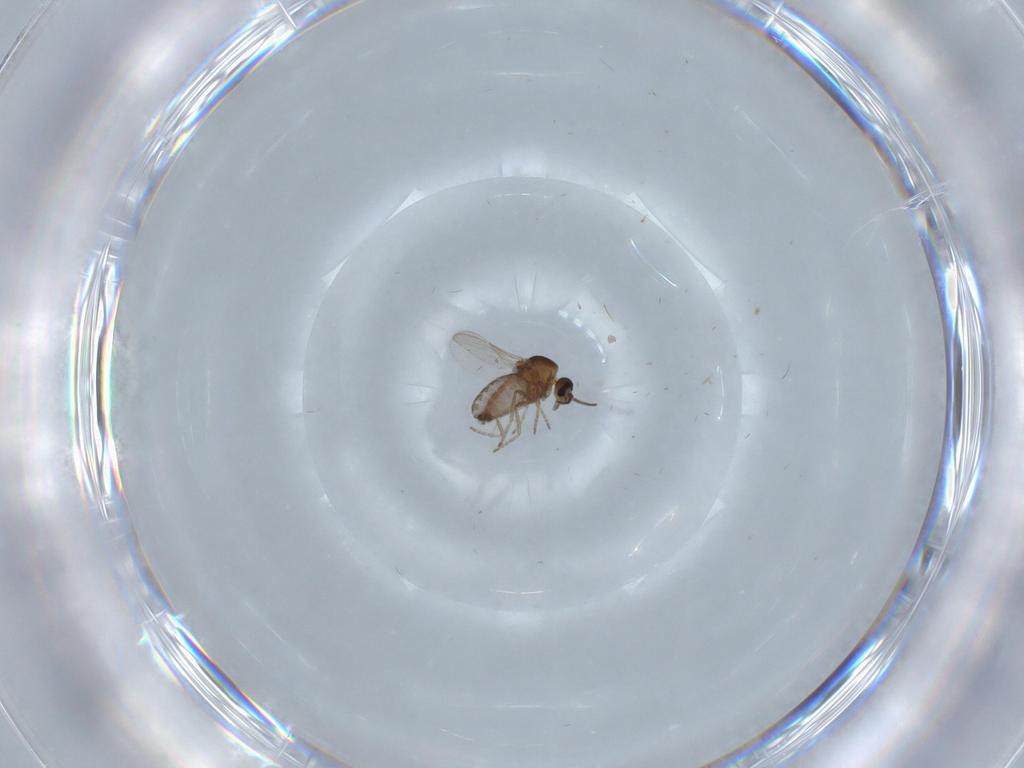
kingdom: Animalia
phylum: Arthropoda
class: Insecta
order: Diptera
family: Ceratopogonidae
